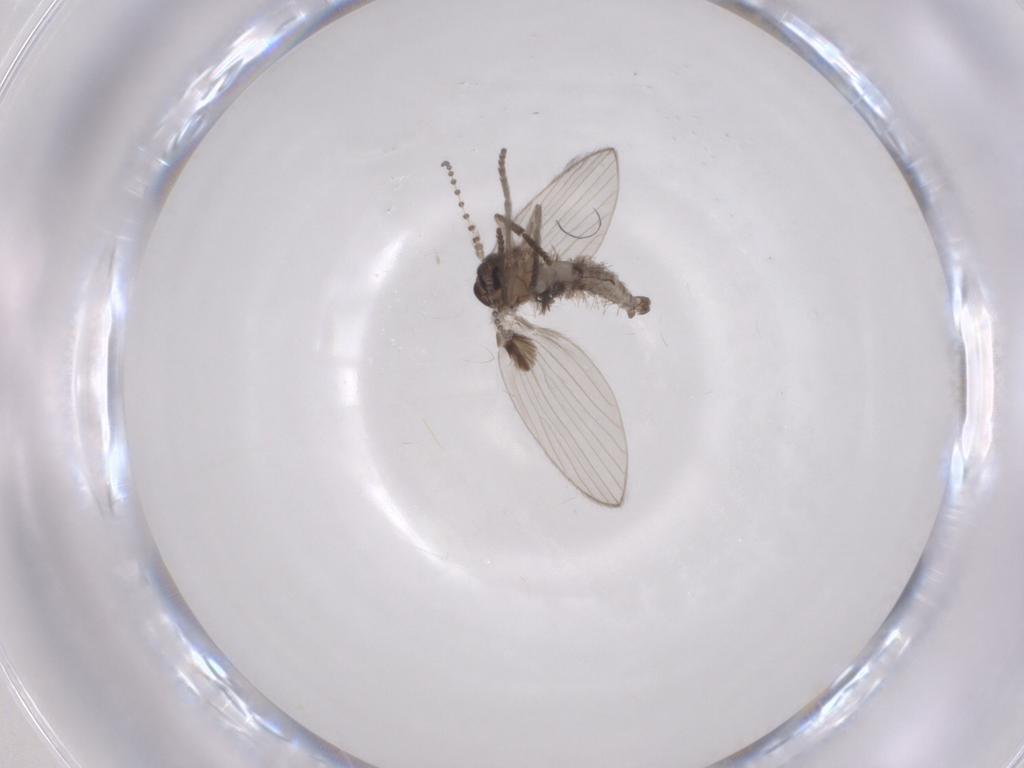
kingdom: Animalia
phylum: Arthropoda
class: Insecta
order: Diptera
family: Psychodidae
